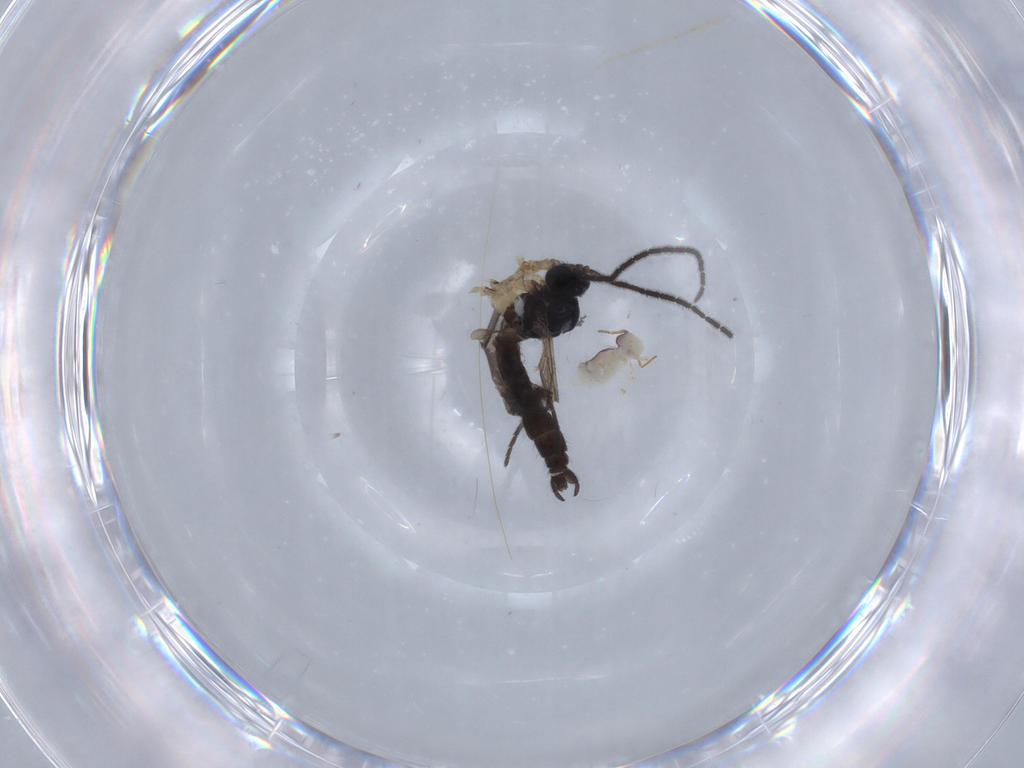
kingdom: Animalia
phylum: Arthropoda
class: Insecta
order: Diptera
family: Sciaridae
